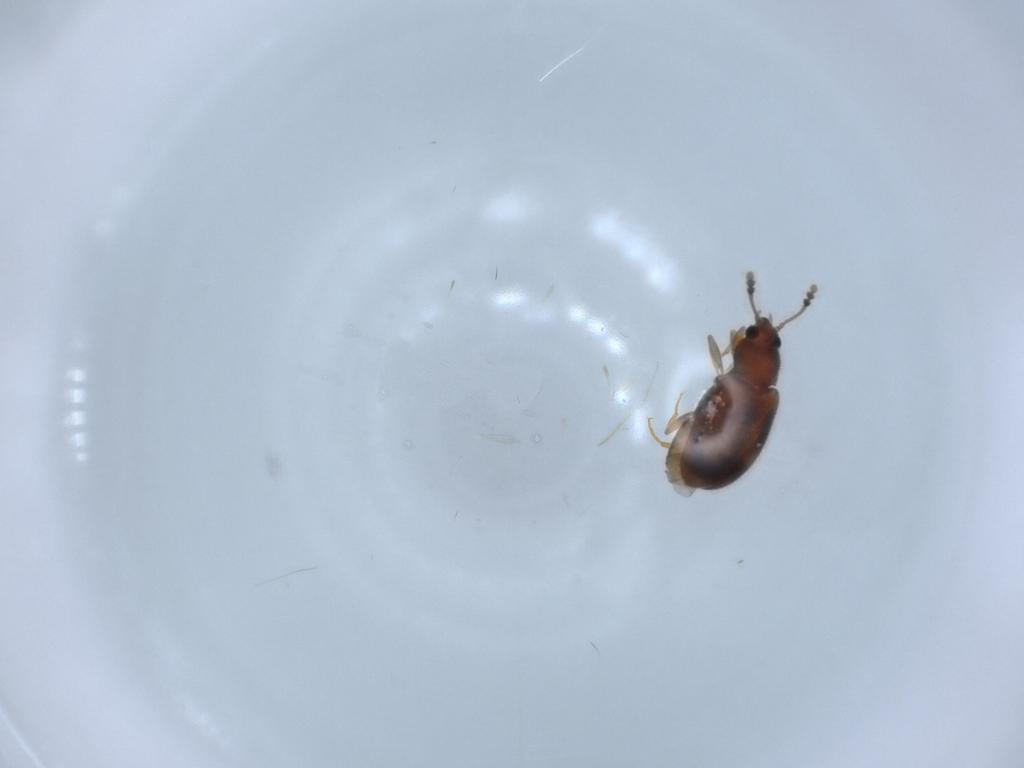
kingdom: Animalia
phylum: Arthropoda
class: Insecta
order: Coleoptera
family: Erotylidae
